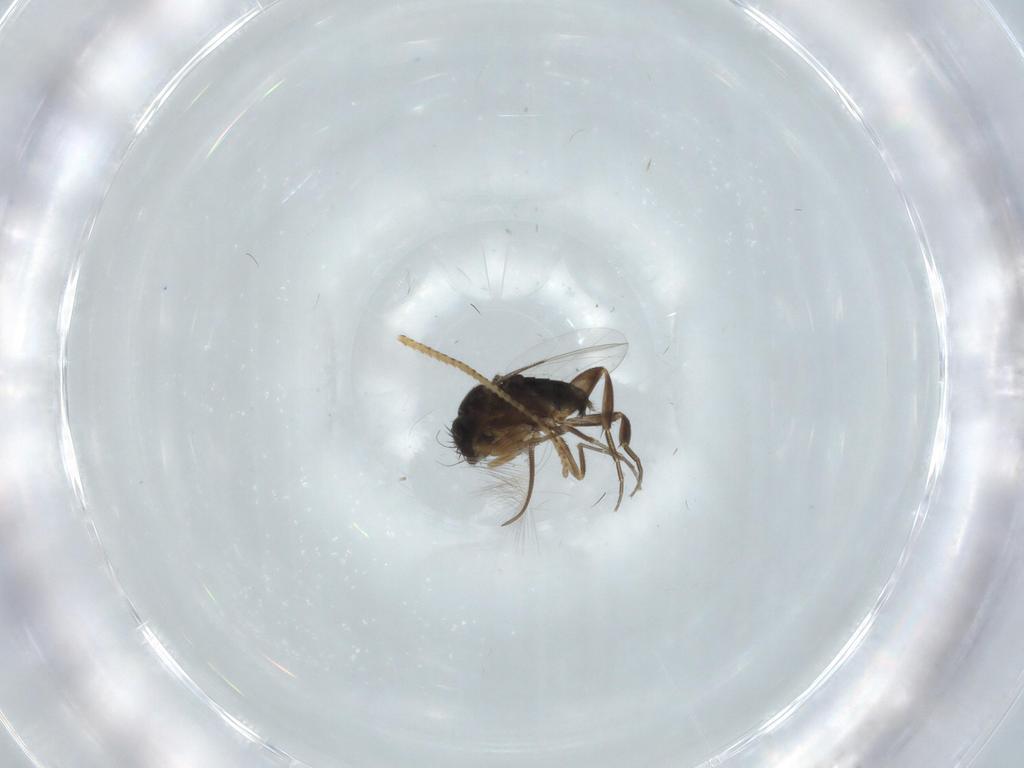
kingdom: Animalia
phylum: Arthropoda
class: Insecta
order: Diptera
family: Phoridae
